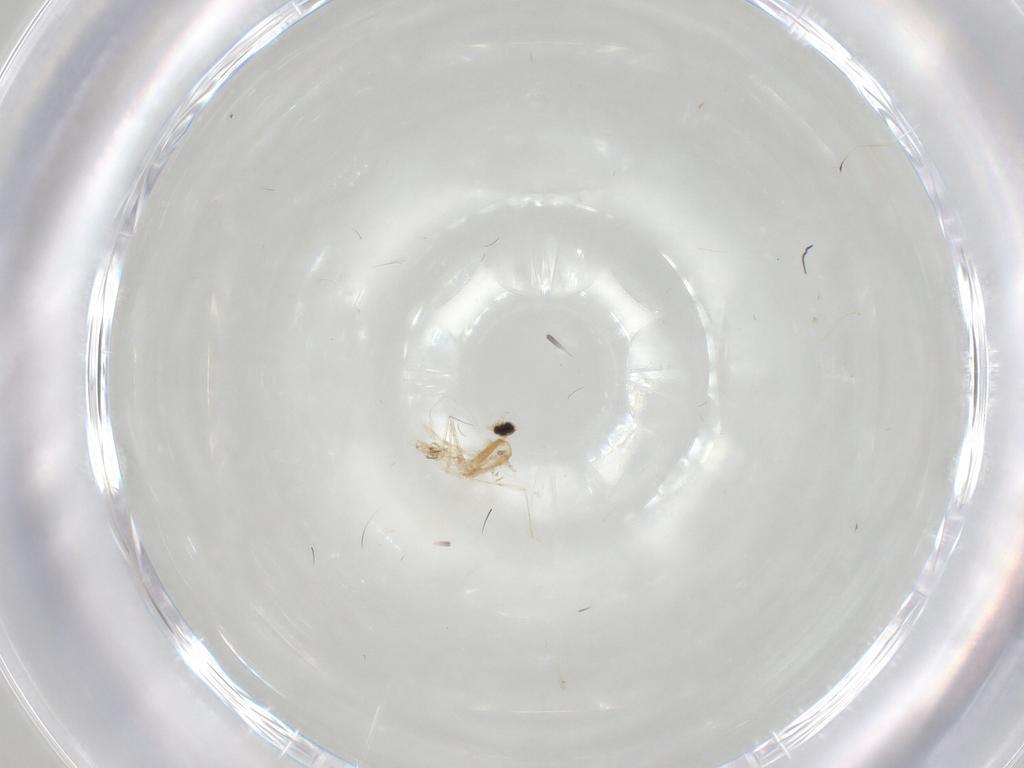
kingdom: Animalia
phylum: Arthropoda
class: Insecta
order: Diptera
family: Cecidomyiidae
